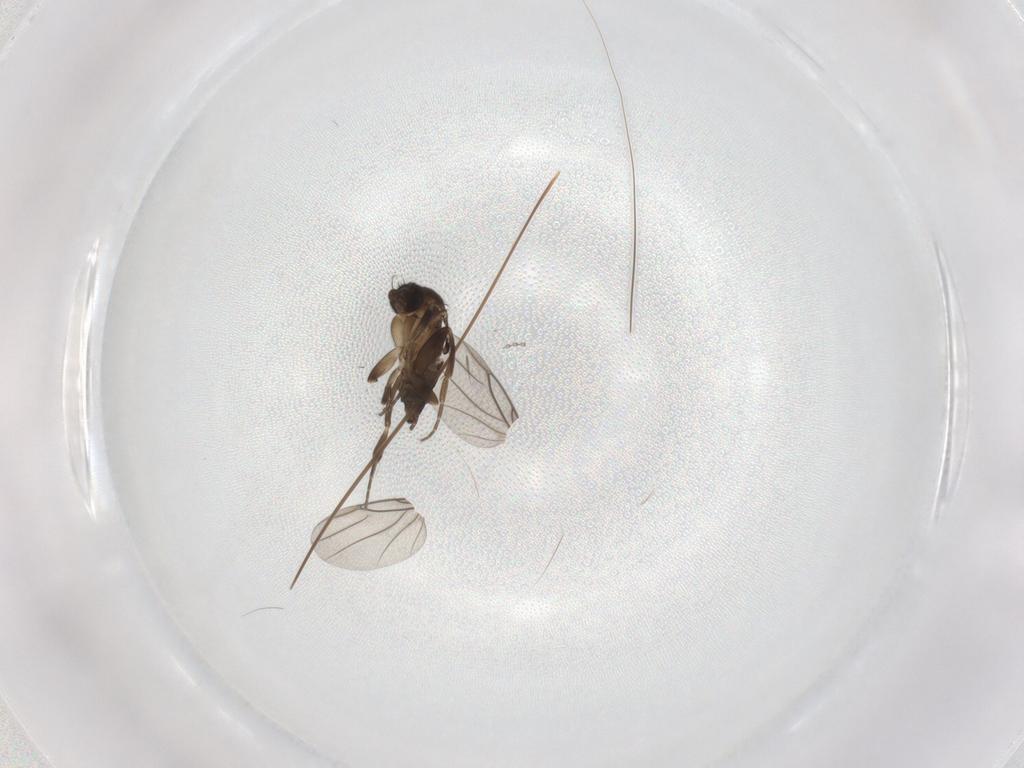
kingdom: Animalia
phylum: Arthropoda
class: Insecta
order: Diptera
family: Cecidomyiidae
